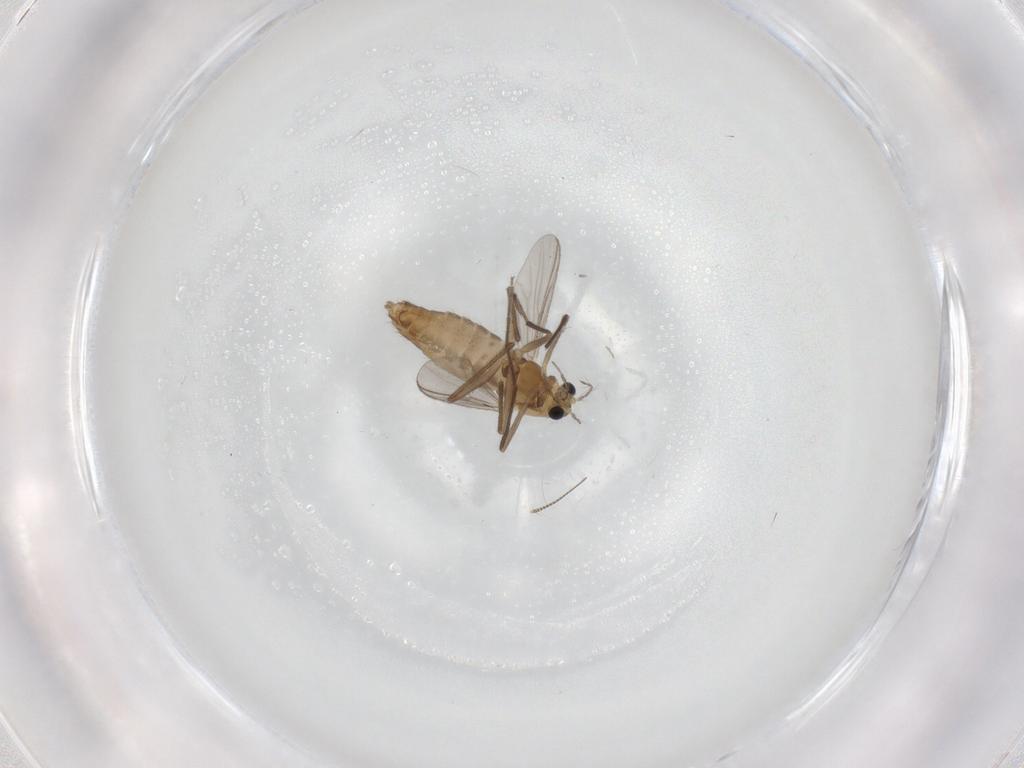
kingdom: Animalia
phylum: Arthropoda
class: Insecta
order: Diptera
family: Chironomidae
